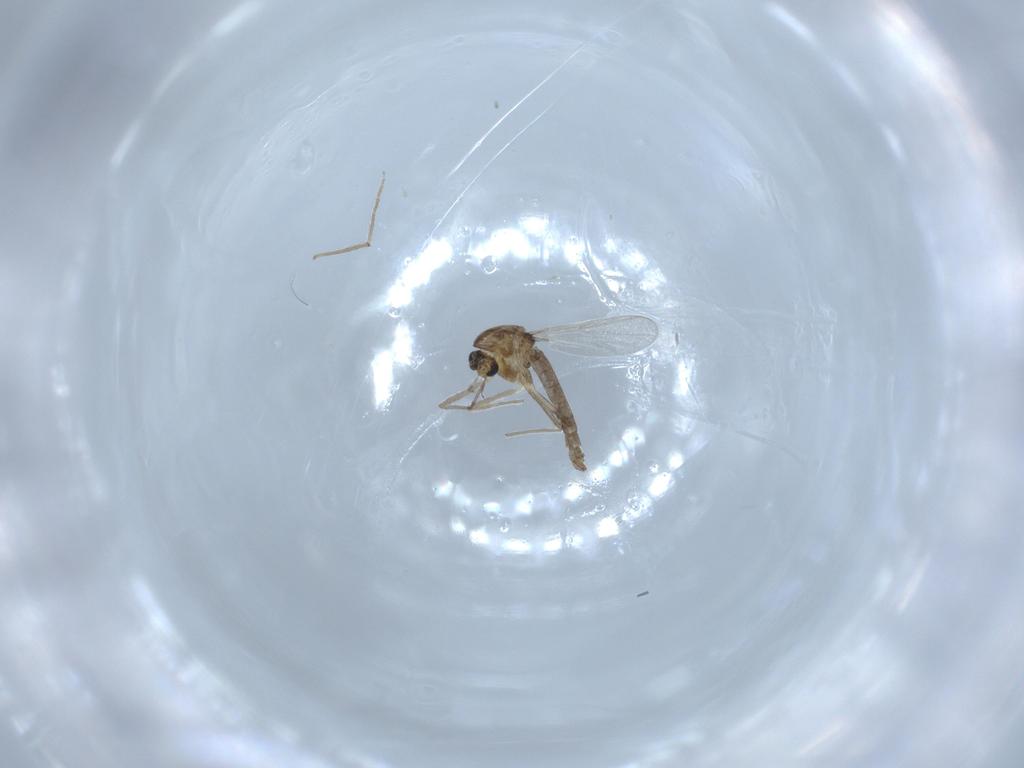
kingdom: Animalia
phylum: Arthropoda
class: Insecta
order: Diptera
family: Chironomidae
